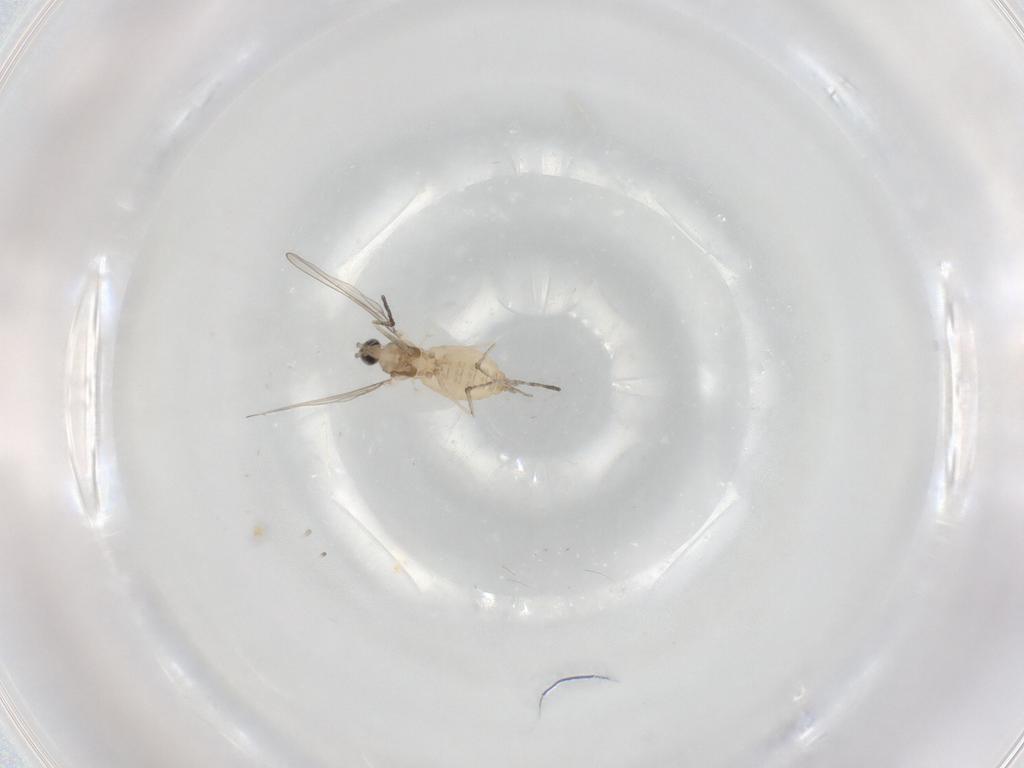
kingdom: Animalia
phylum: Arthropoda
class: Insecta
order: Diptera
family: Cecidomyiidae
